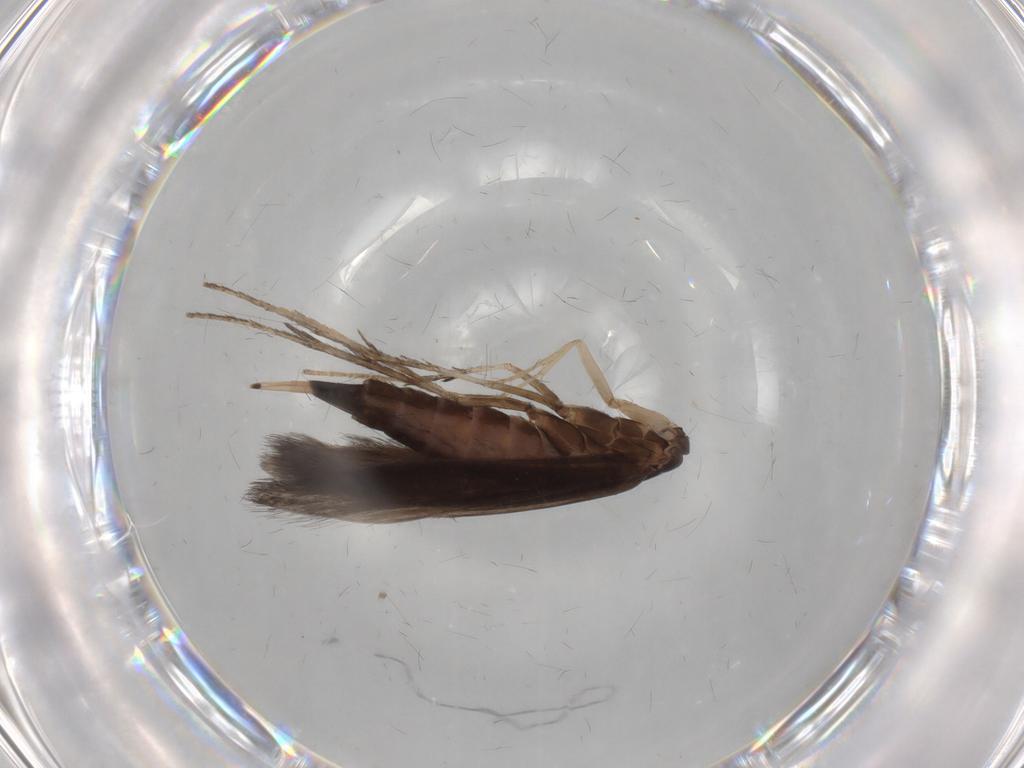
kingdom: Animalia
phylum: Arthropoda
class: Insecta
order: Trichoptera
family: Xiphocentronidae
